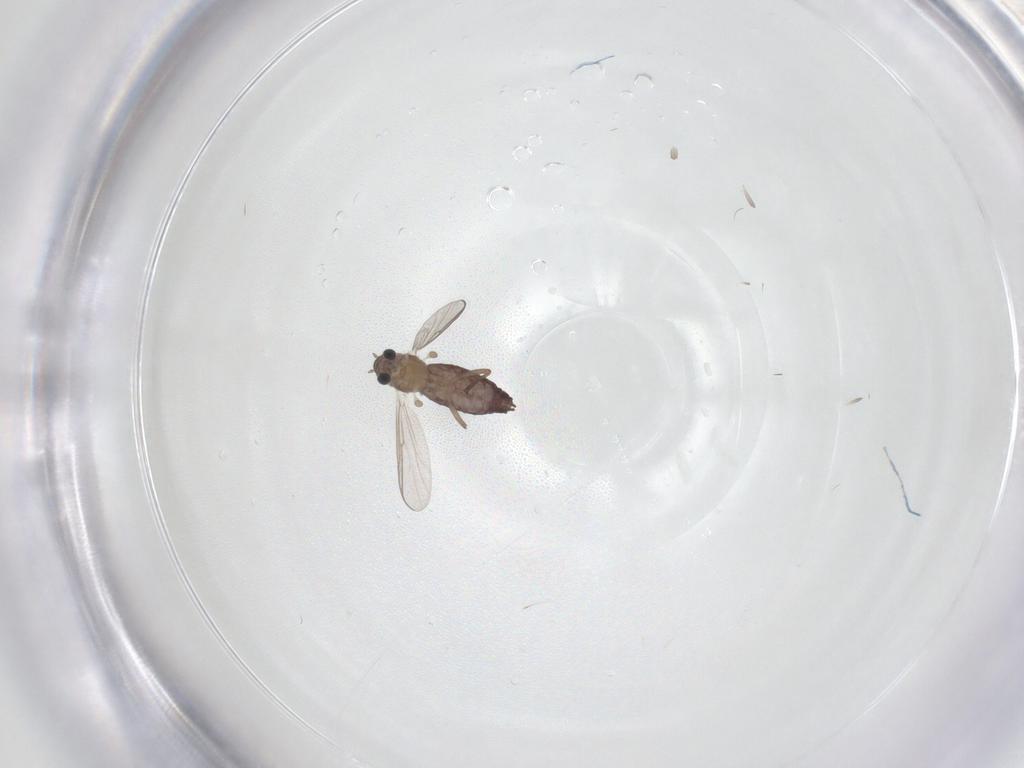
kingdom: Animalia
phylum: Arthropoda
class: Insecta
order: Diptera
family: Chironomidae
